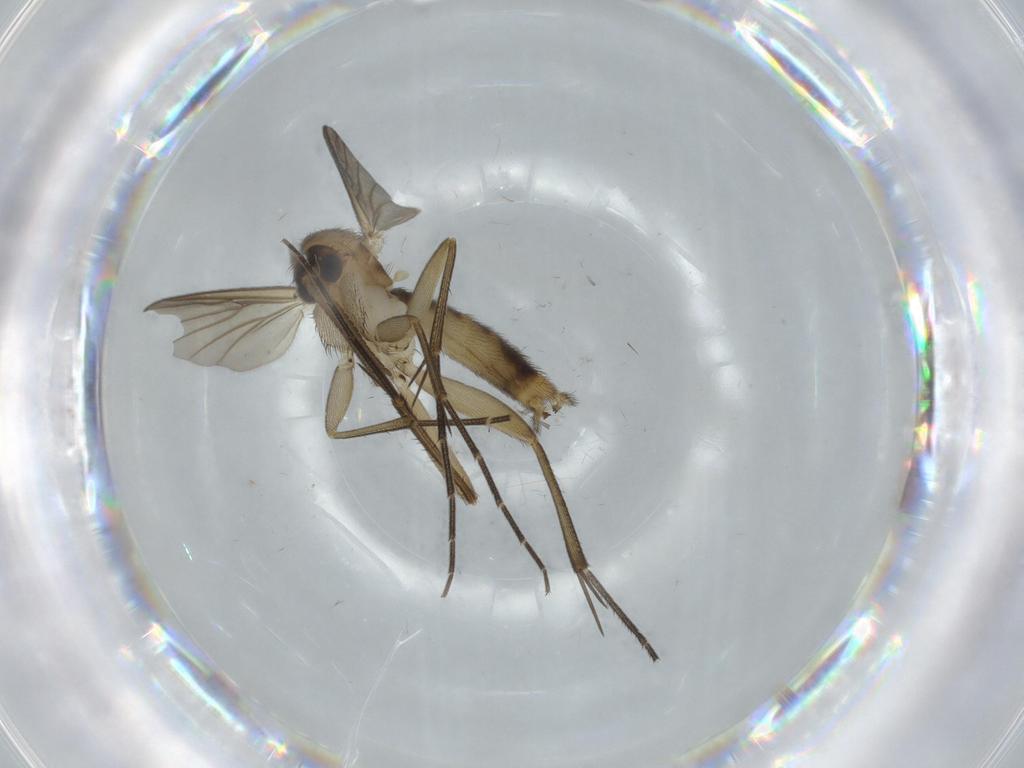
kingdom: Animalia
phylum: Arthropoda
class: Insecta
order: Diptera
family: Mycetophilidae
